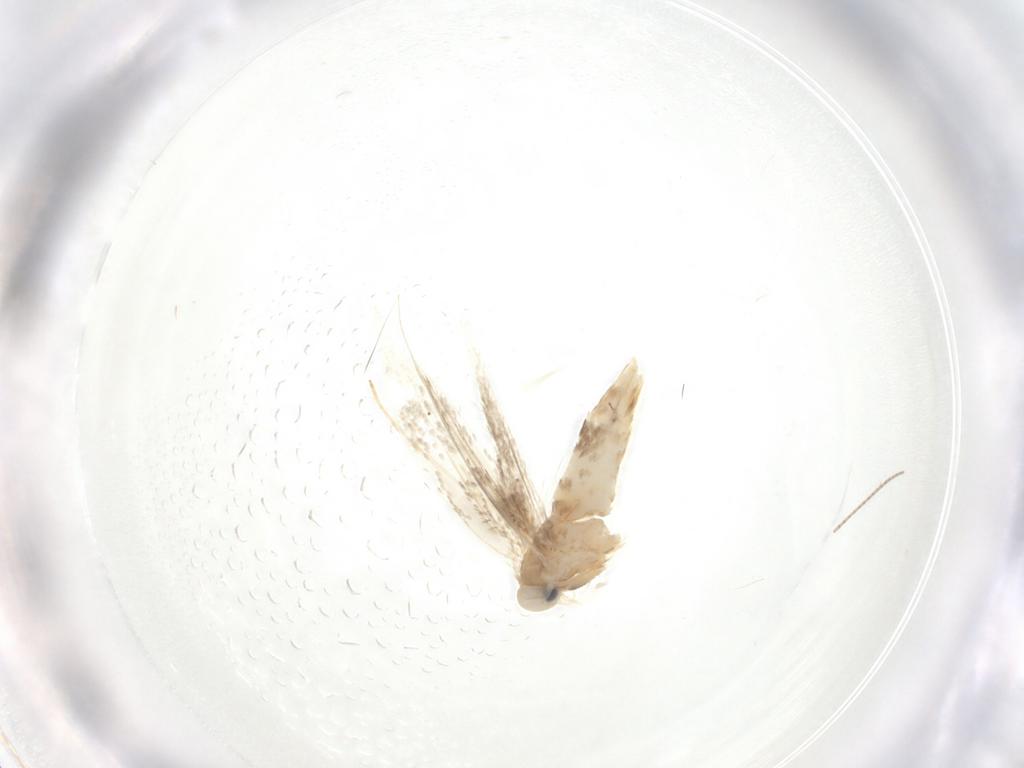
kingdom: Animalia
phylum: Arthropoda
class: Insecta
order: Lepidoptera
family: Gracillariidae
